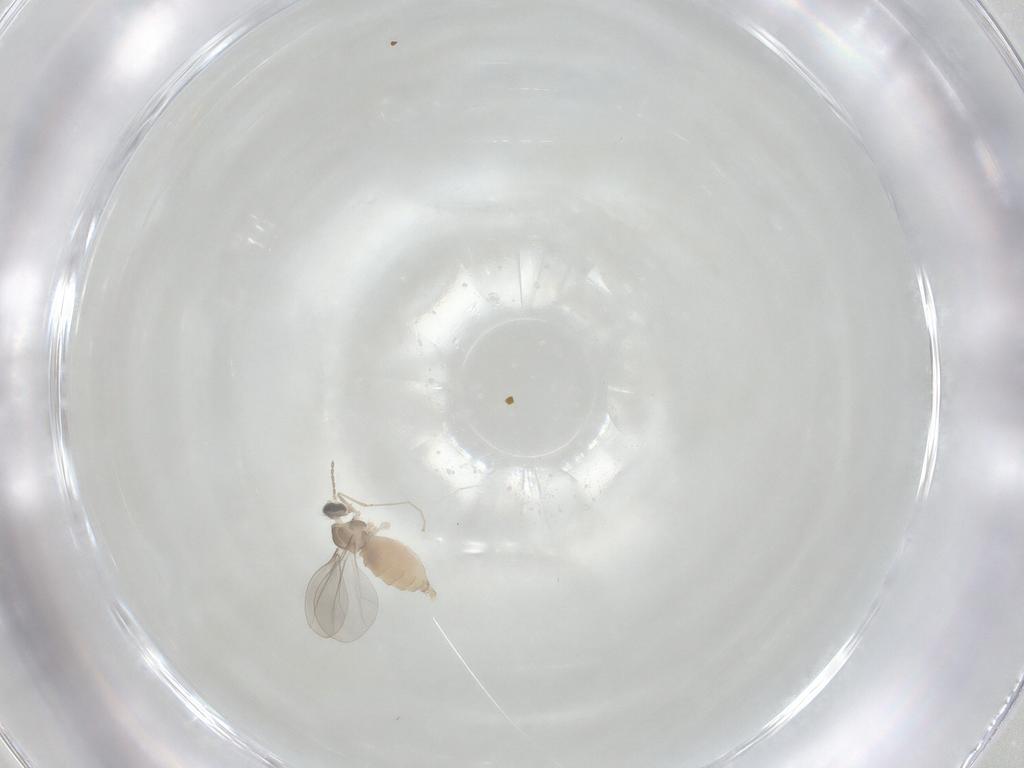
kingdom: Animalia
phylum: Arthropoda
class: Insecta
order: Diptera
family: Cecidomyiidae
